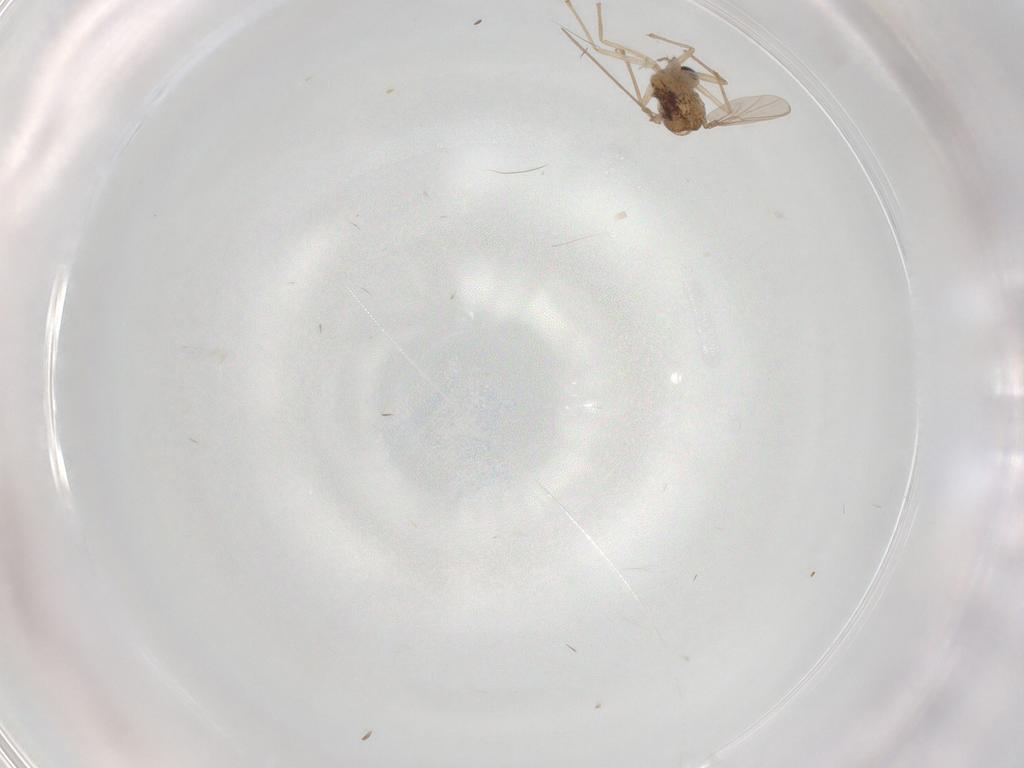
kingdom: Animalia
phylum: Arthropoda
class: Insecta
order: Diptera
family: Chironomidae
